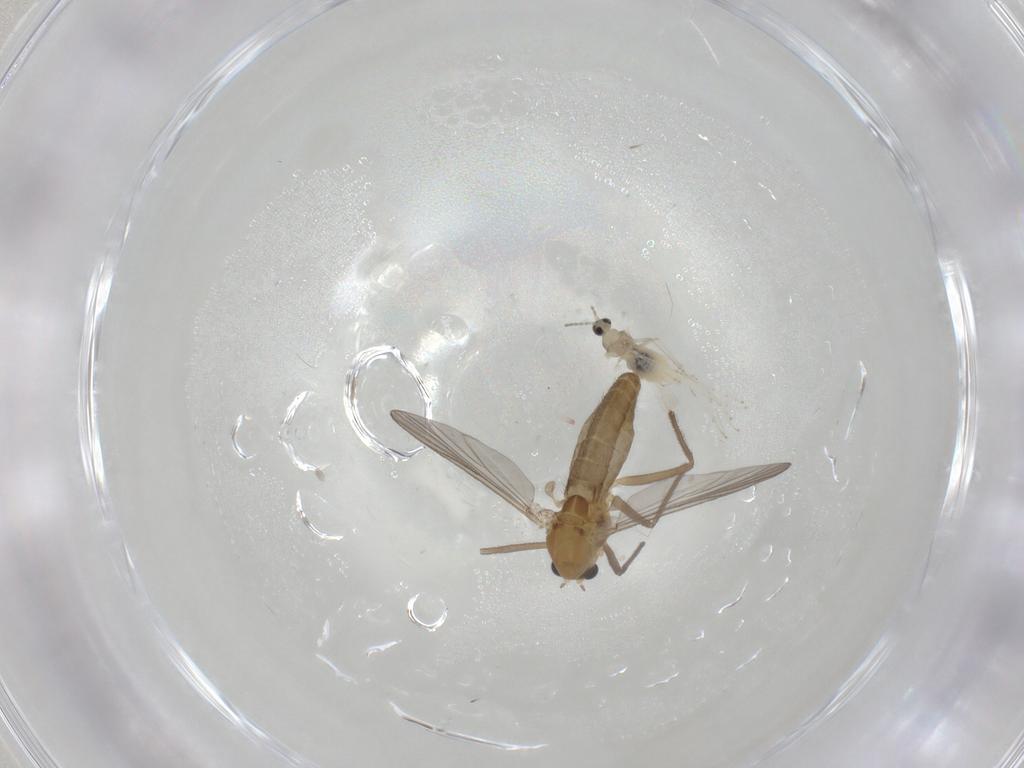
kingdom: Animalia
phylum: Arthropoda
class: Insecta
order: Diptera
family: Chironomidae
